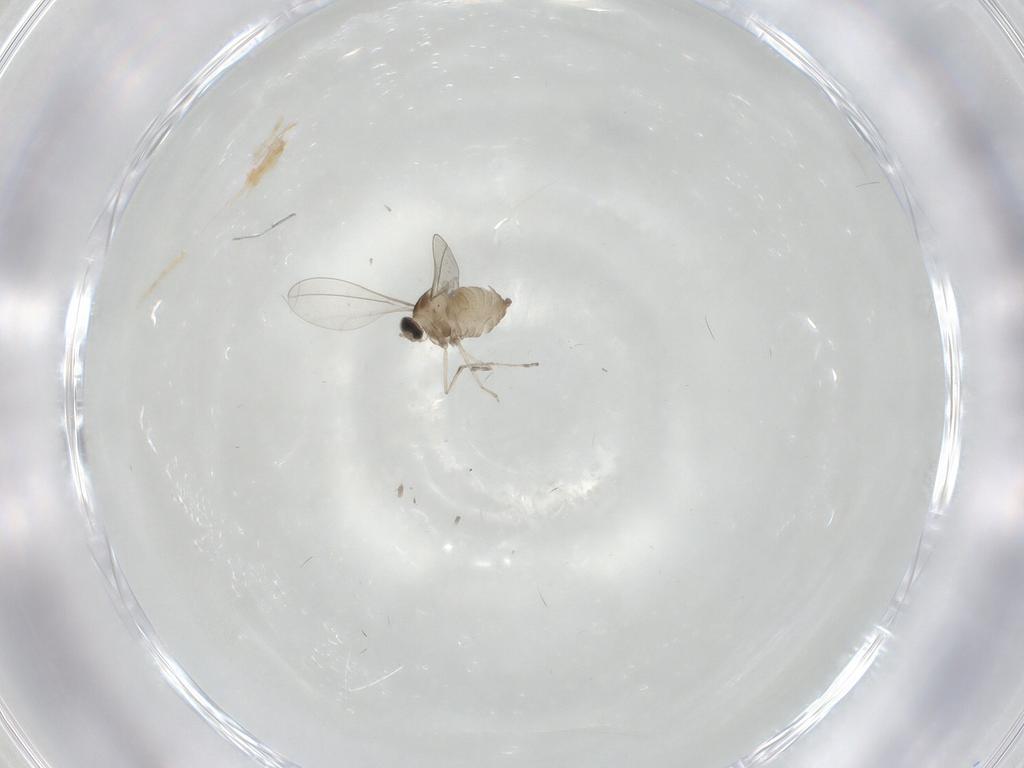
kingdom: Animalia
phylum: Arthropoda
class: Insecta
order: Diptera
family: Cecidomyiidae
